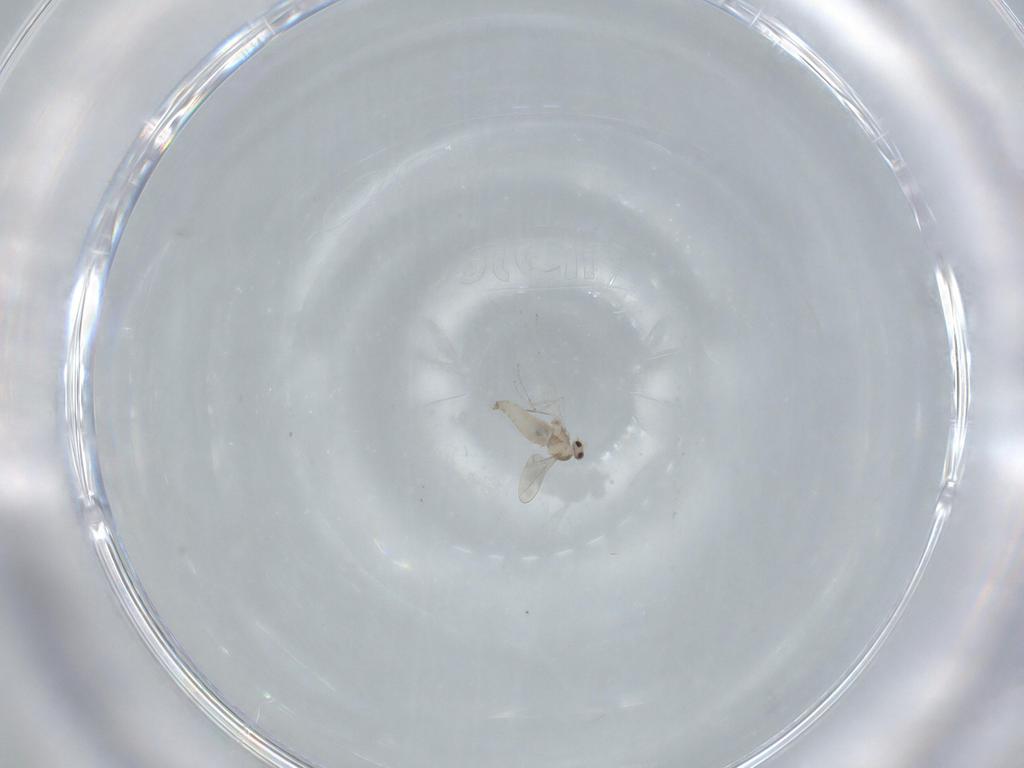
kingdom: Animalia
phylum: Arthropoda
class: Insecta
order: Diptera
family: Cecidomyiidae
